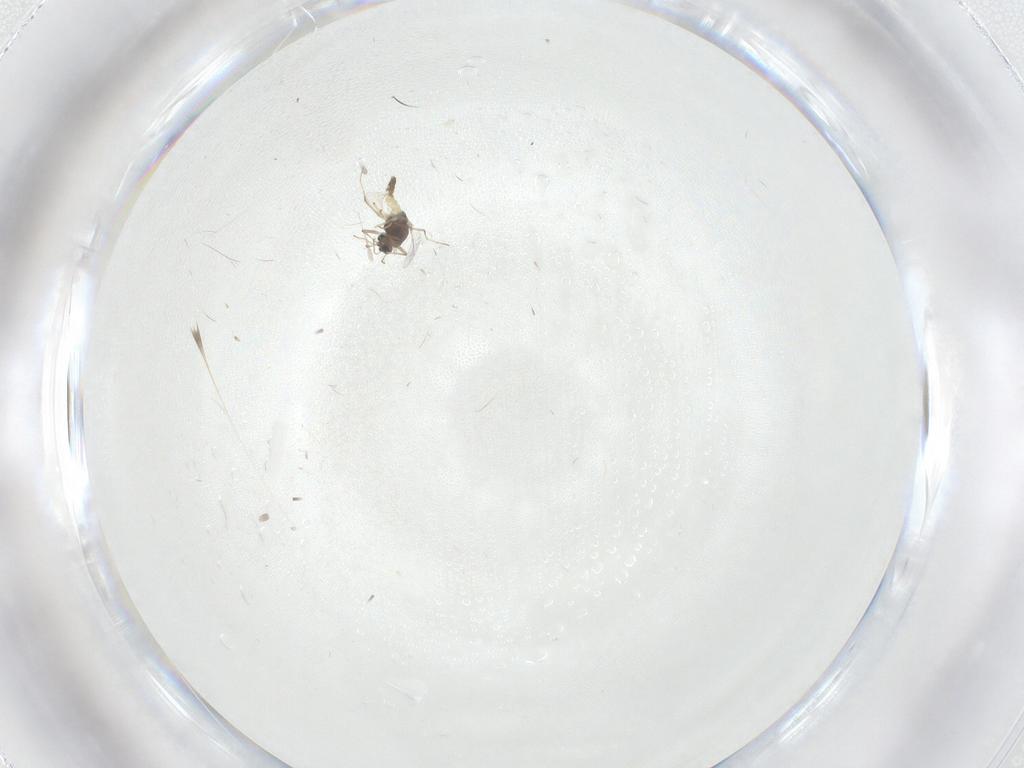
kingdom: Animalia
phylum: Arthropoda
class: Insecta
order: Diptera
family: Chironomidae
